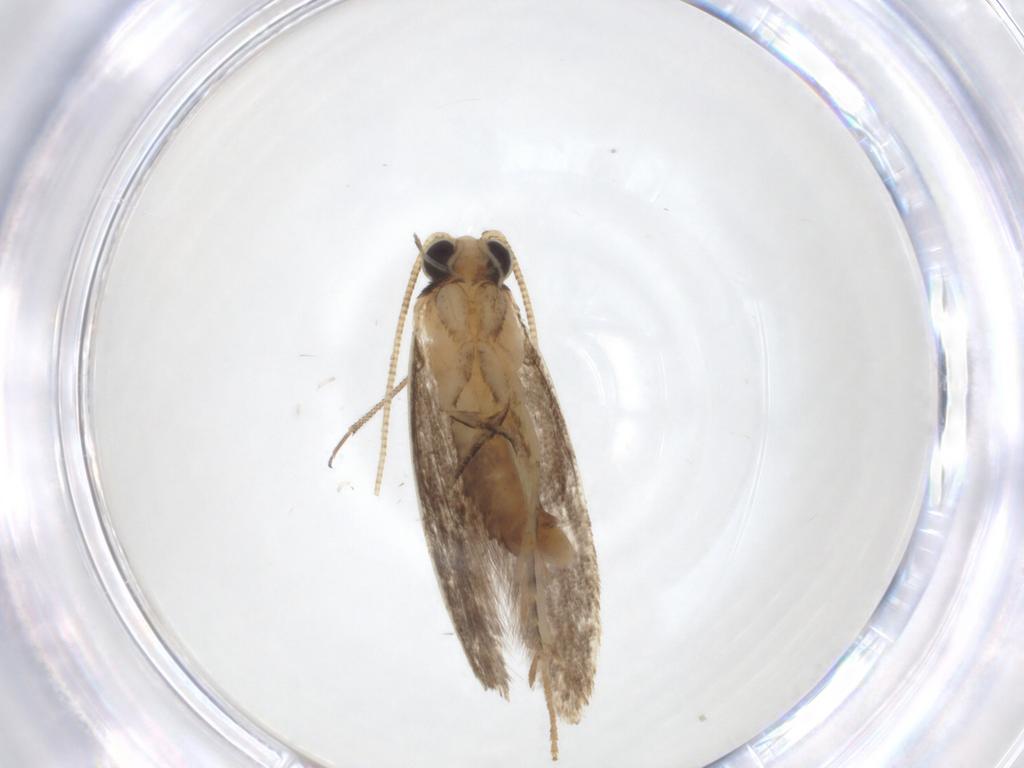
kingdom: Animalia
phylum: Arthropoda
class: Insecta
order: Lepidoptera
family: Tineidae
